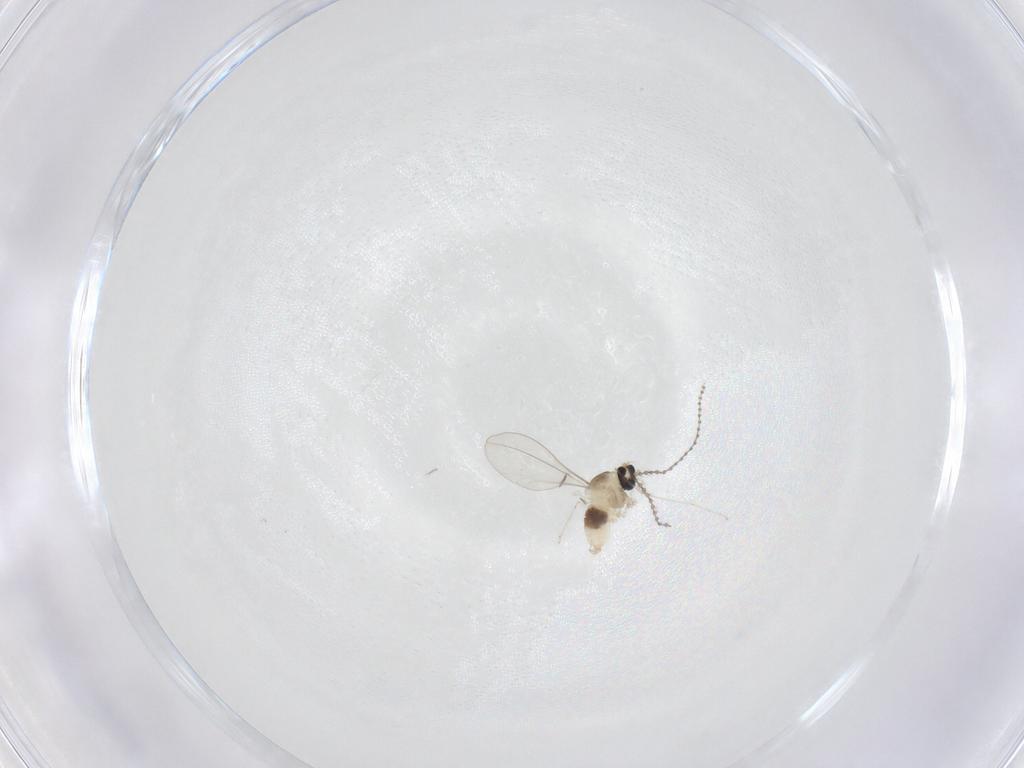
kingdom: Animalia
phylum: Arthropoda
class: Insecta
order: Diptera
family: Cecidomyiidae
